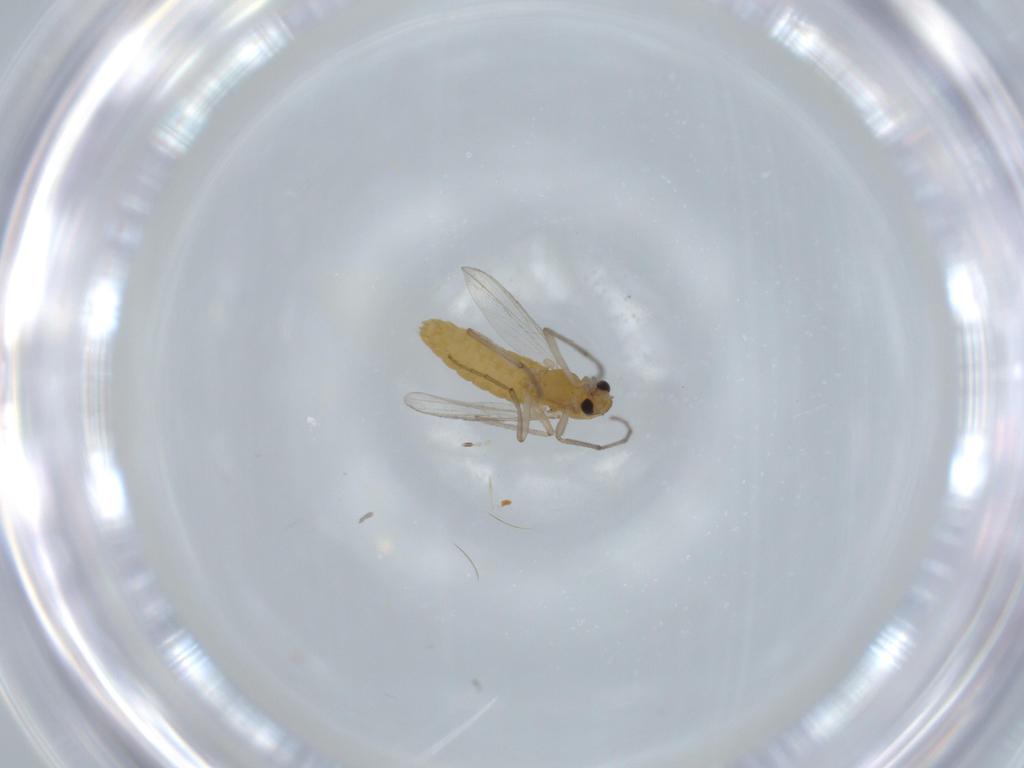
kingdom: Animalia
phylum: Arthropoda
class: Insecta
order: Diptera
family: Chironomidae
